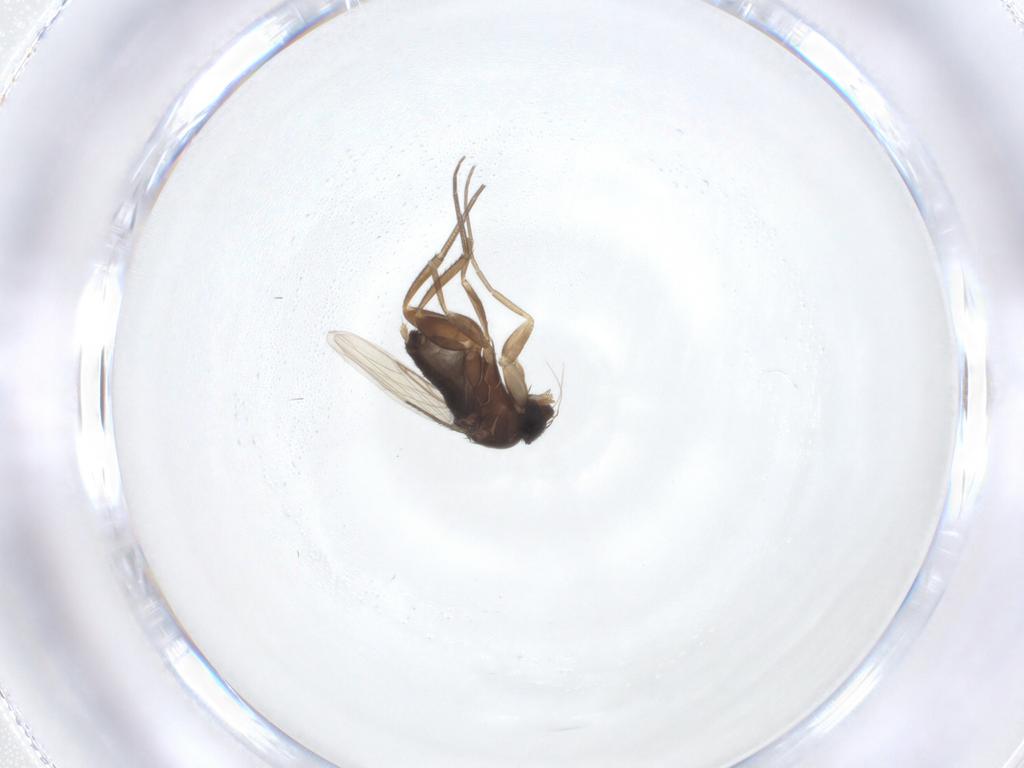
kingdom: Animalia
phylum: Arthropoda
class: Insecta
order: Diptera
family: Phoridae
